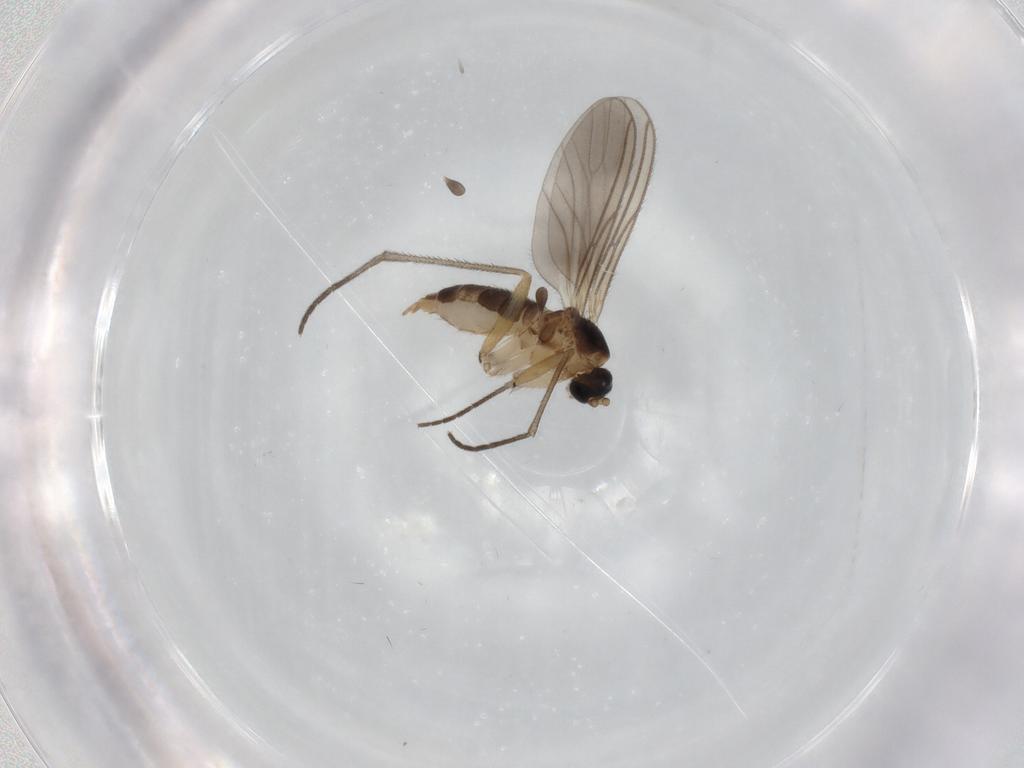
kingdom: Animalia
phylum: Arthropoda
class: Insecta
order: Diptera
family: Sciaridae
